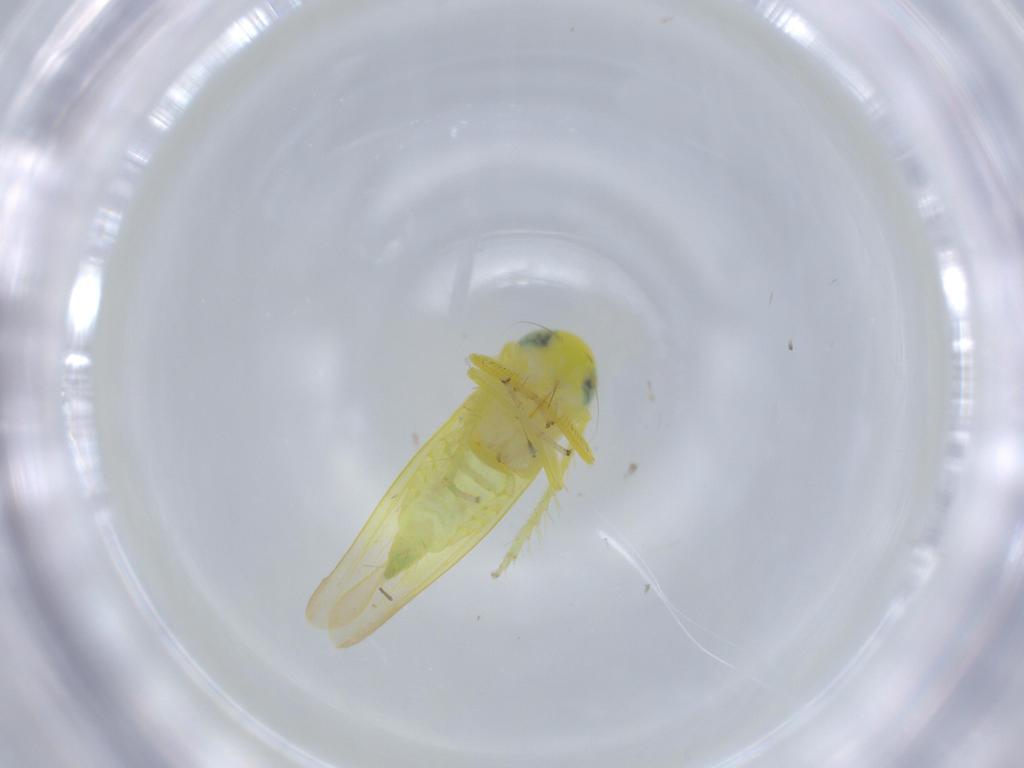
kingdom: Animalia
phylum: Arthropoda
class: Insecta
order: Hemiptera
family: Cicadellidae
